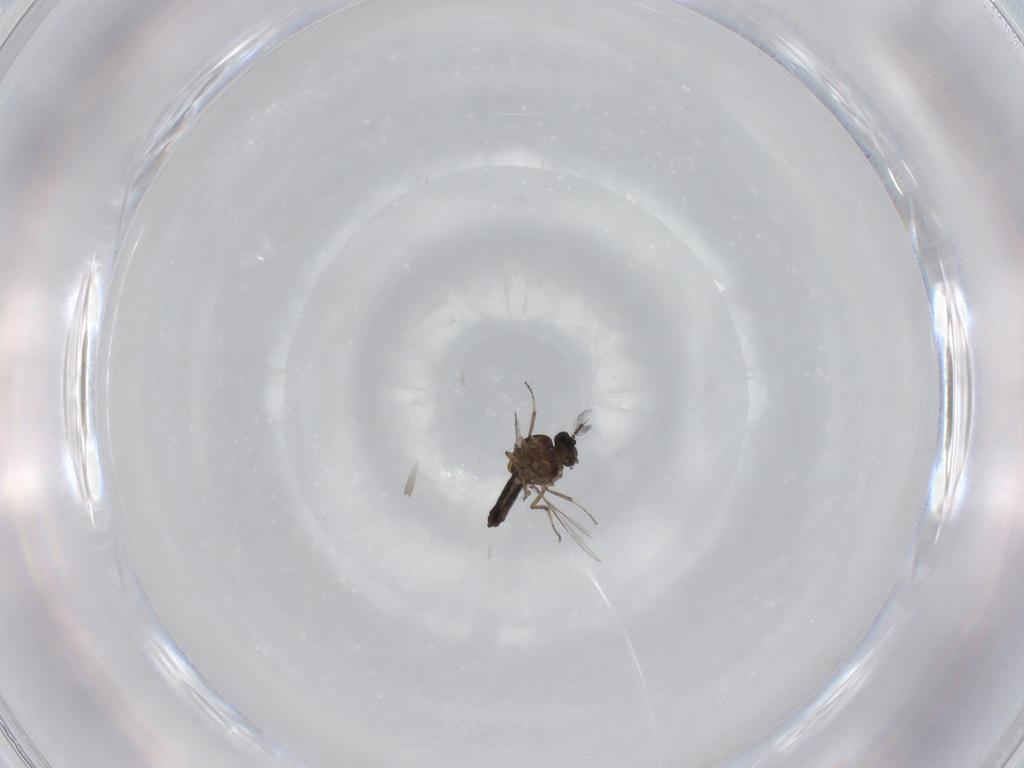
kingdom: Animalia
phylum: Arthropoda
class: Insecta
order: Diptera
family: Ceratopogonidae
